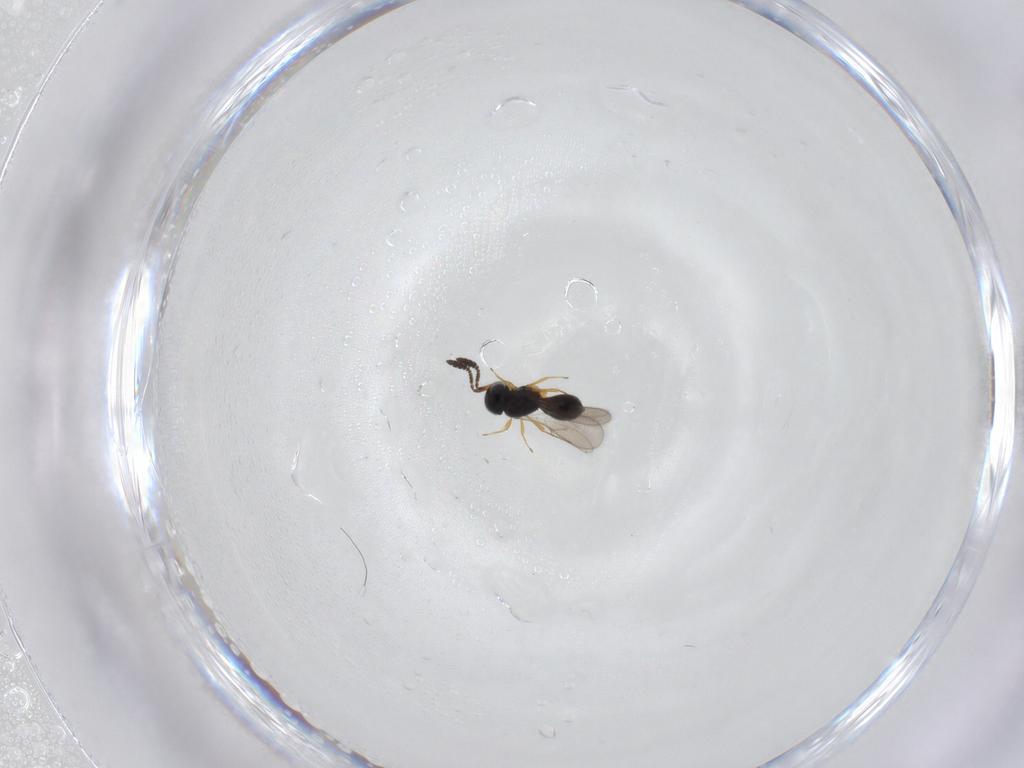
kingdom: Animalia
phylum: Arthropoda
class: Insecta
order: Hymenoptera
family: Scelionidae
